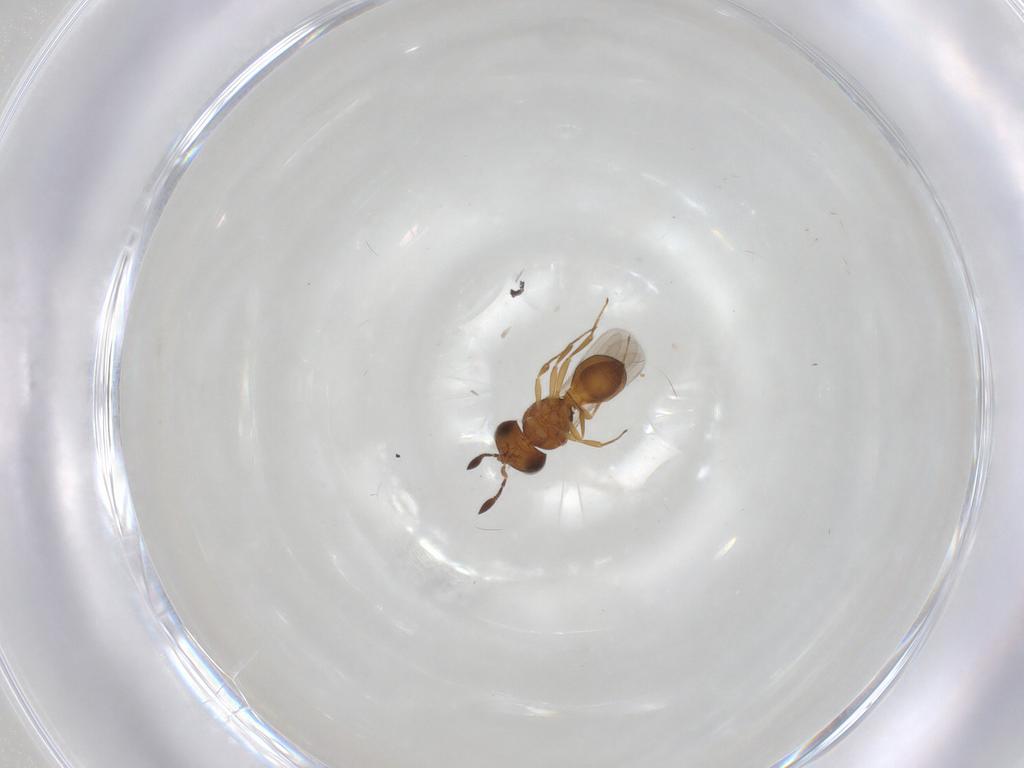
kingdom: Animalia
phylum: Arthropoda
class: Insecta
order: Hymenoptera
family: Scelionidae
